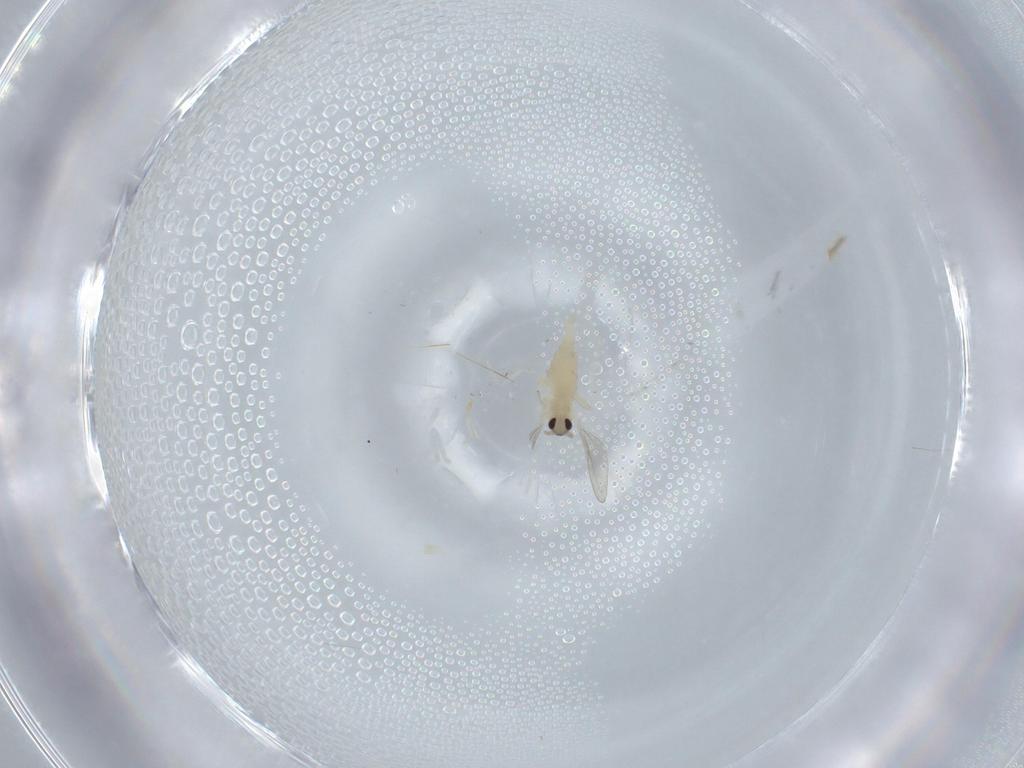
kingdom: Animalia
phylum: Arthropoda
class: Insecta
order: Diptera
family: Cecidomyiidae
